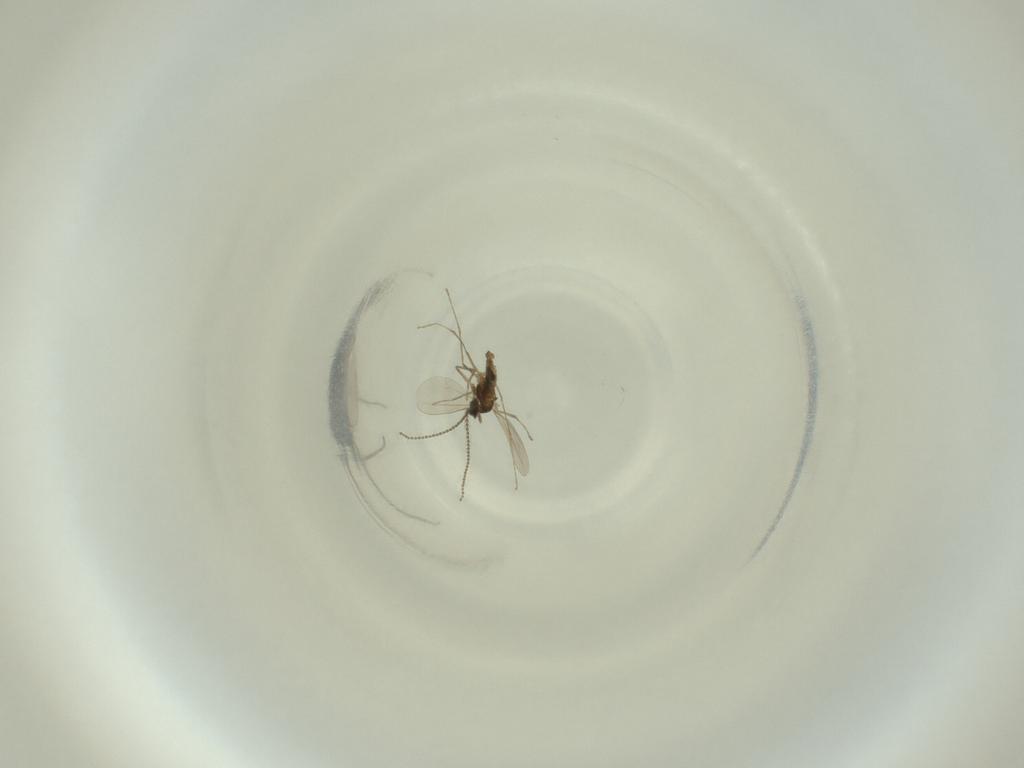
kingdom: Animalia
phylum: Arthropoda
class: Insecta
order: Diptera
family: Cecidomyiidae
